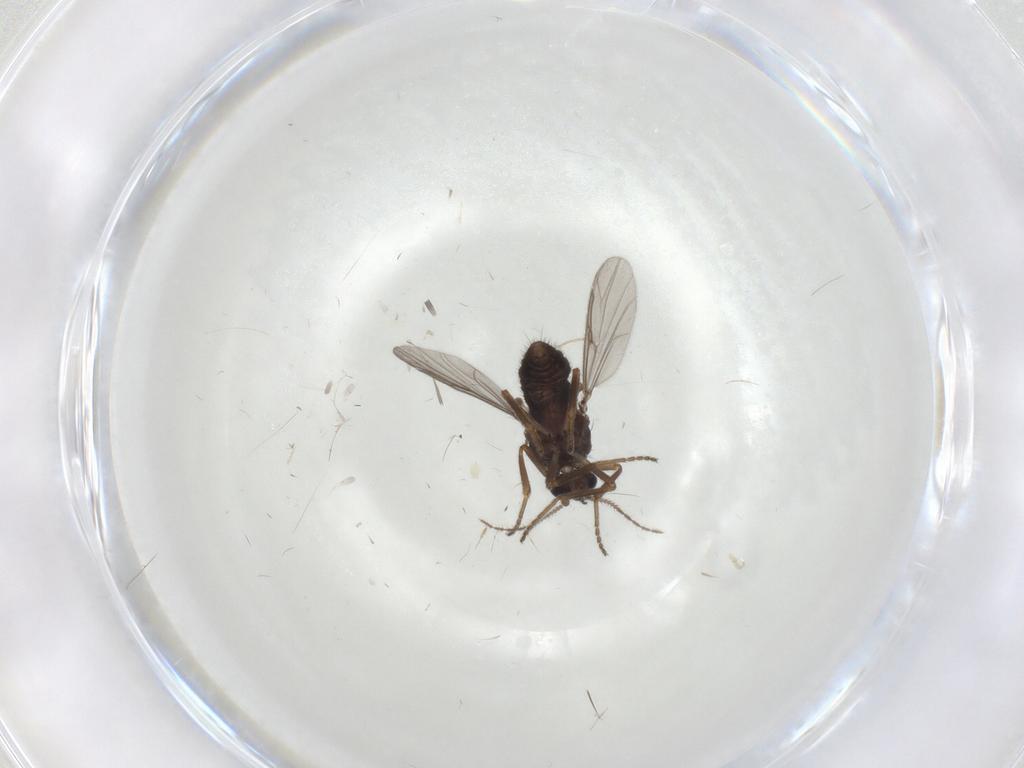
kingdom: Animalia
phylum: Arthropoda
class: Insecta
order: Diptera
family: Ceratopogonidae
